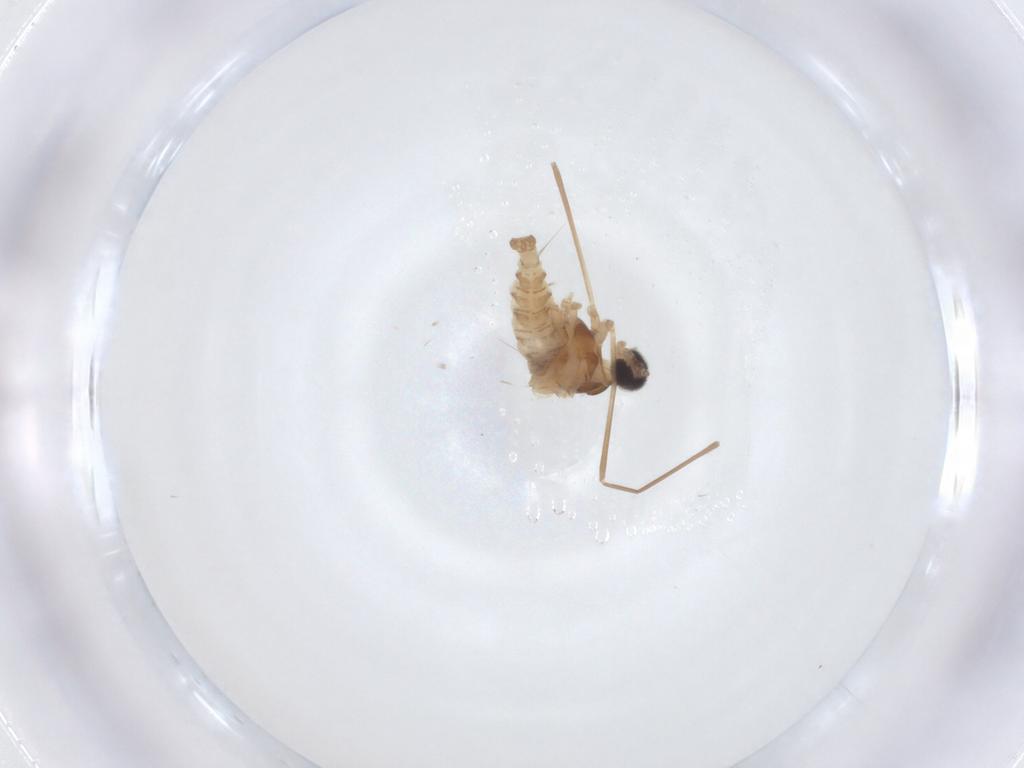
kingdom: Animalia
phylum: Arthropoda
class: Insecta
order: Diptera
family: Cecidomyiidae
